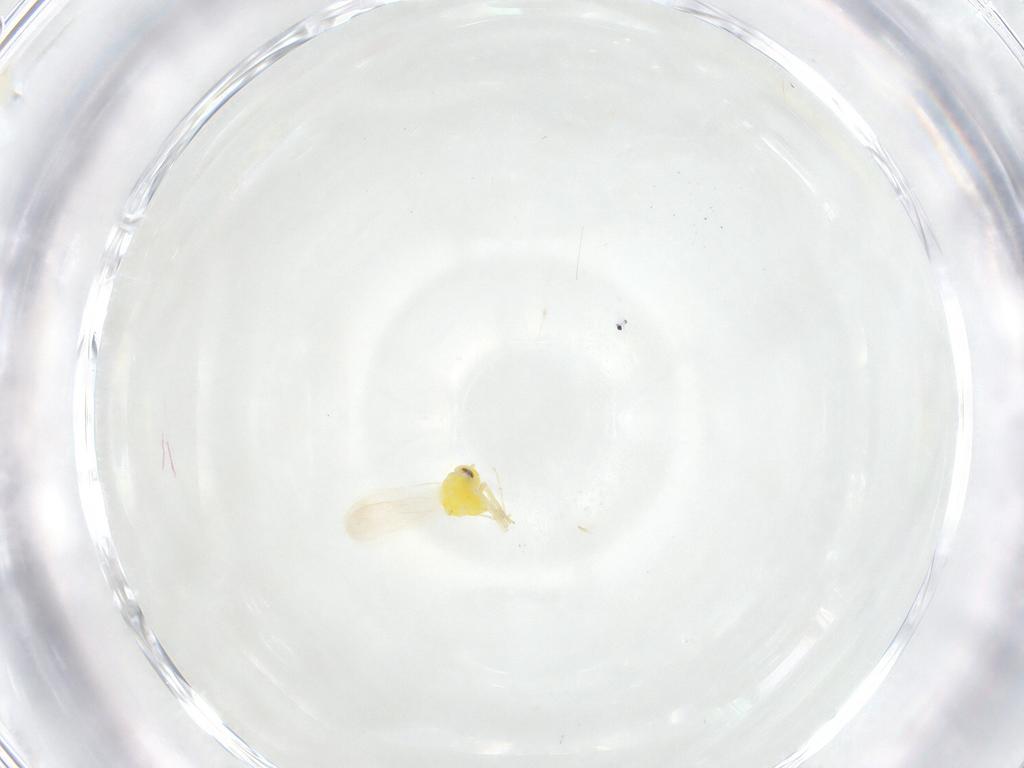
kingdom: Animalia
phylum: Arthropoda
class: Insecta
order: Hemiptera
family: Aleyrodidae
